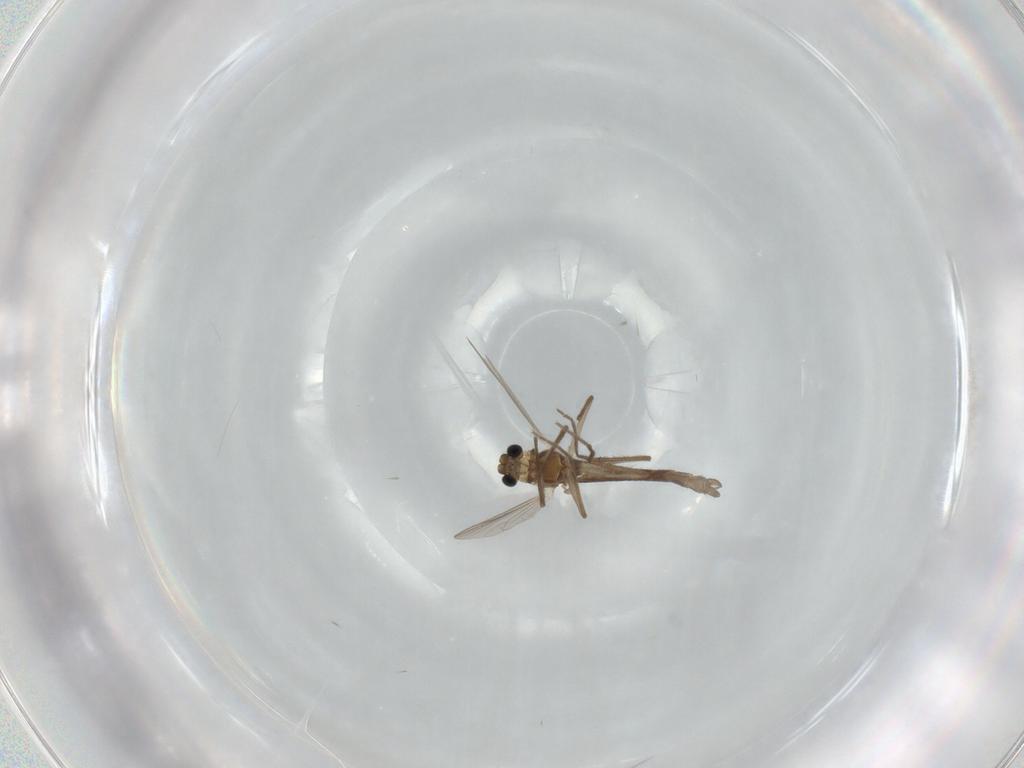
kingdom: Animalia
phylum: Arthropoda
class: Insecta
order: Diptera
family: Chironomidae
